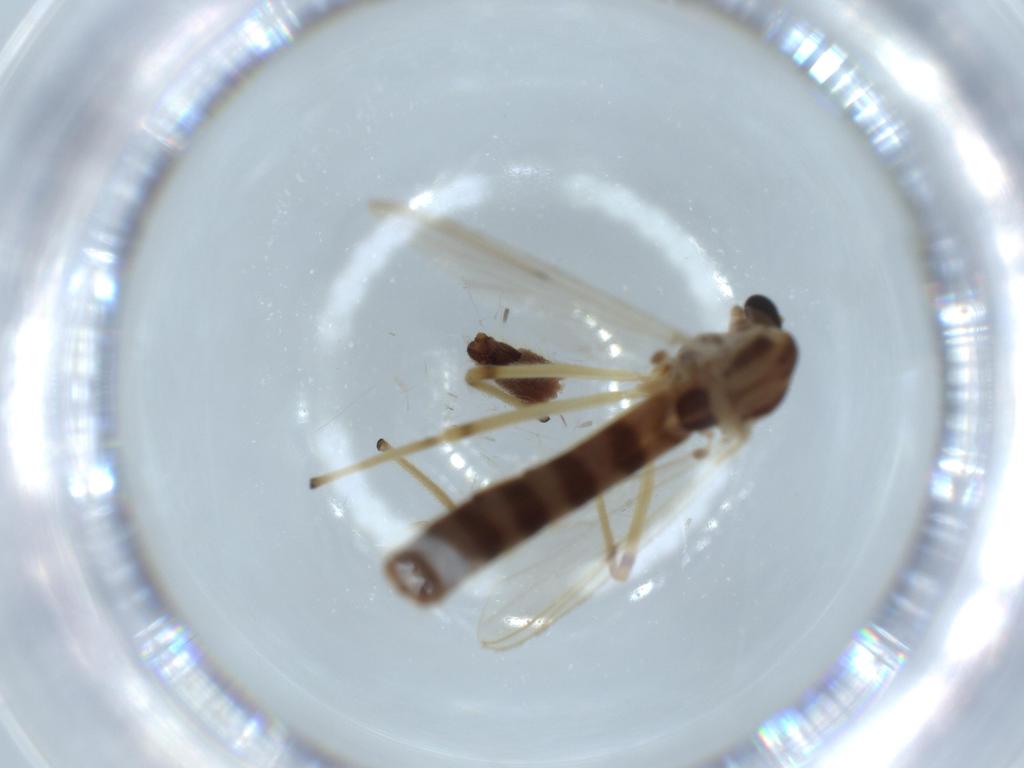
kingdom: Animalia
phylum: Arthropoda
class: Insecta
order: Diptera
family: Chironomidae
